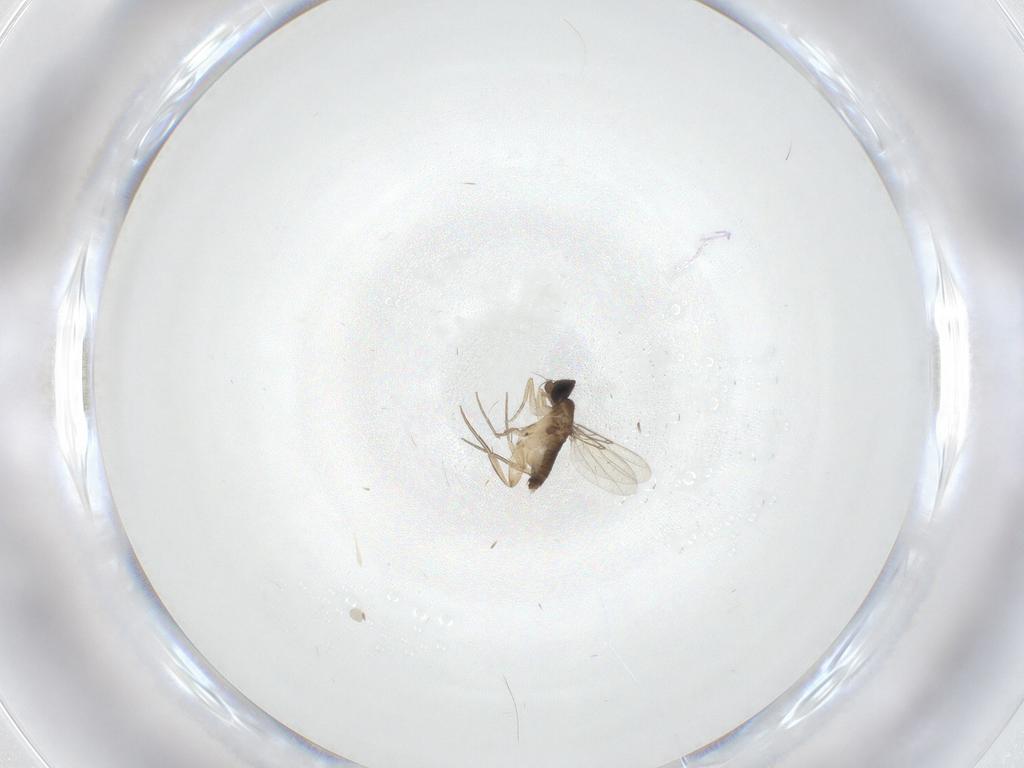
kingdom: Animalia
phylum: Arthropoda
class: Insecta
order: Diptera
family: Phoridae
